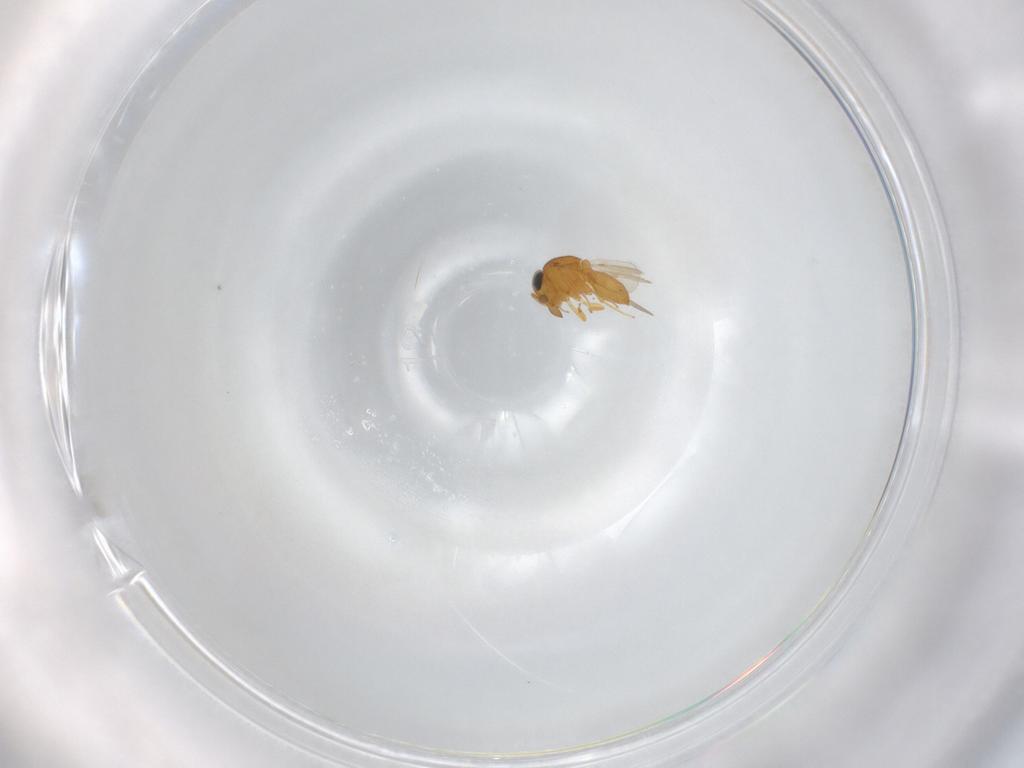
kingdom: Animalia
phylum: Arthropoda
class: Insecta
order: Hymenoptera
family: Scelionidae
